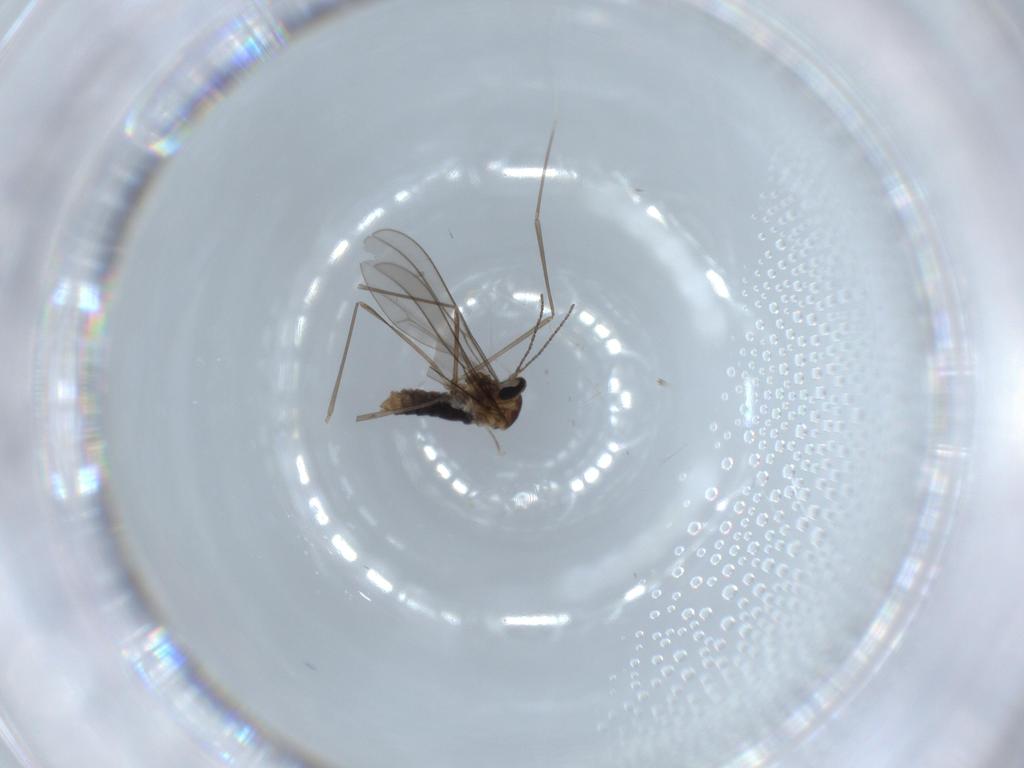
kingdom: Animalia
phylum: Arthropoda
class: Insecta
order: Diptera
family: Cecidomyiidae
